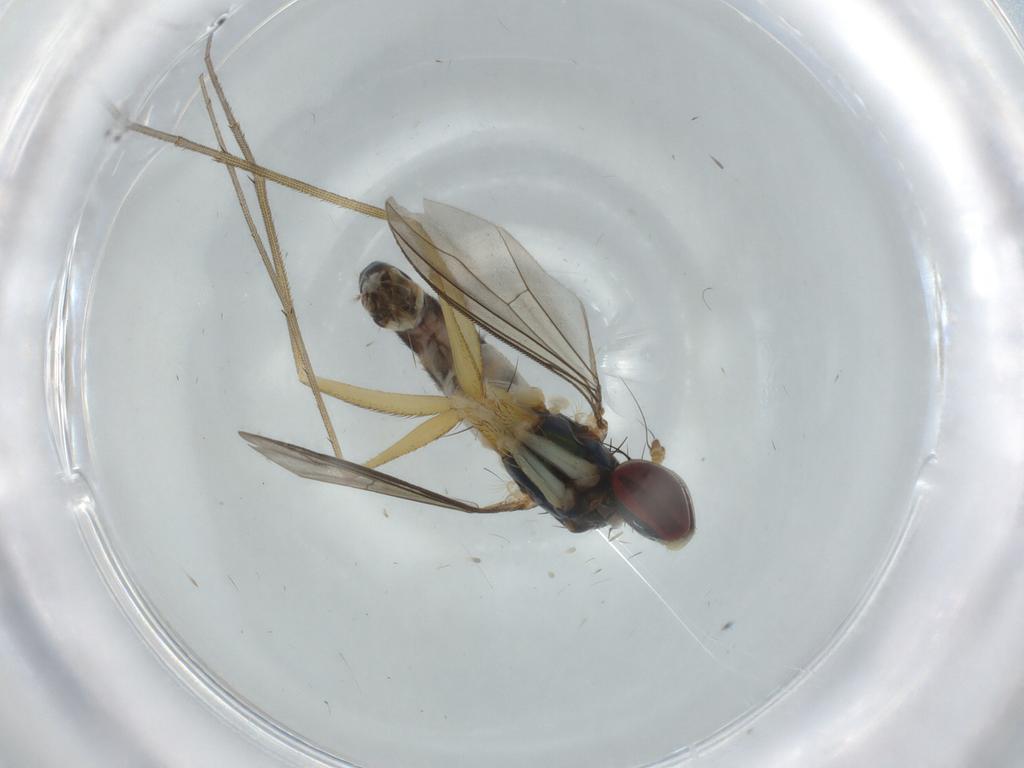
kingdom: Animalia
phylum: Arthropoda
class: Insecta
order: Diptera
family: Dolichopodidae
